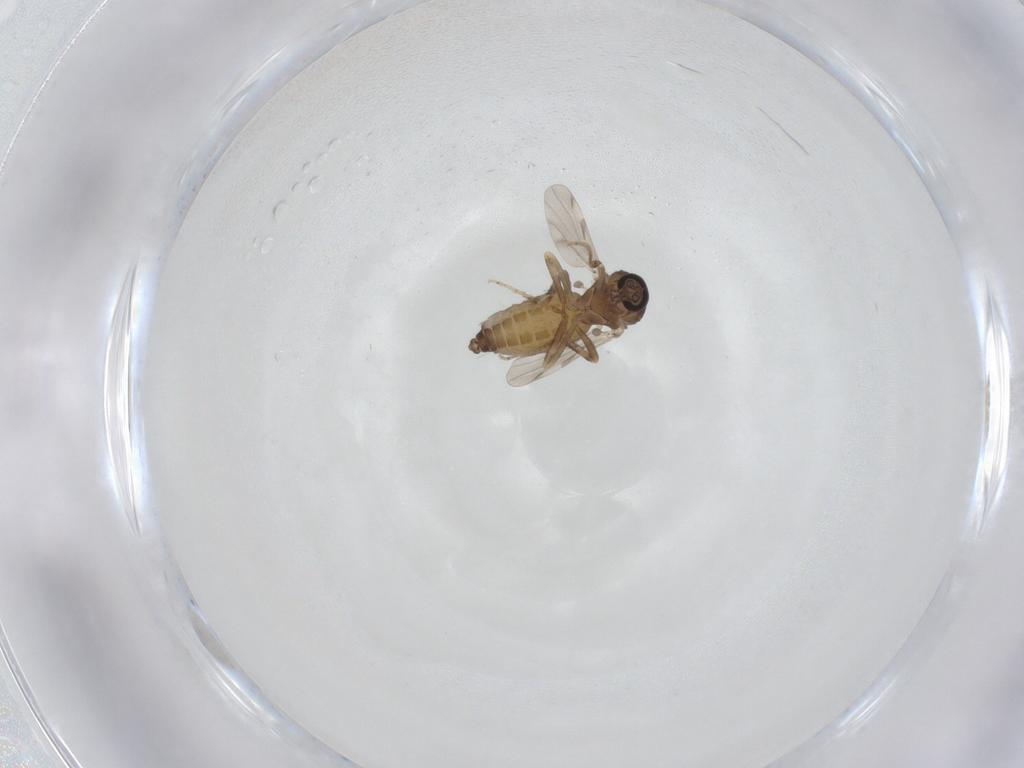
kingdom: Animalia
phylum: Arthropoda
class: Insecta
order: Diptera
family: Ceratopogonidae
